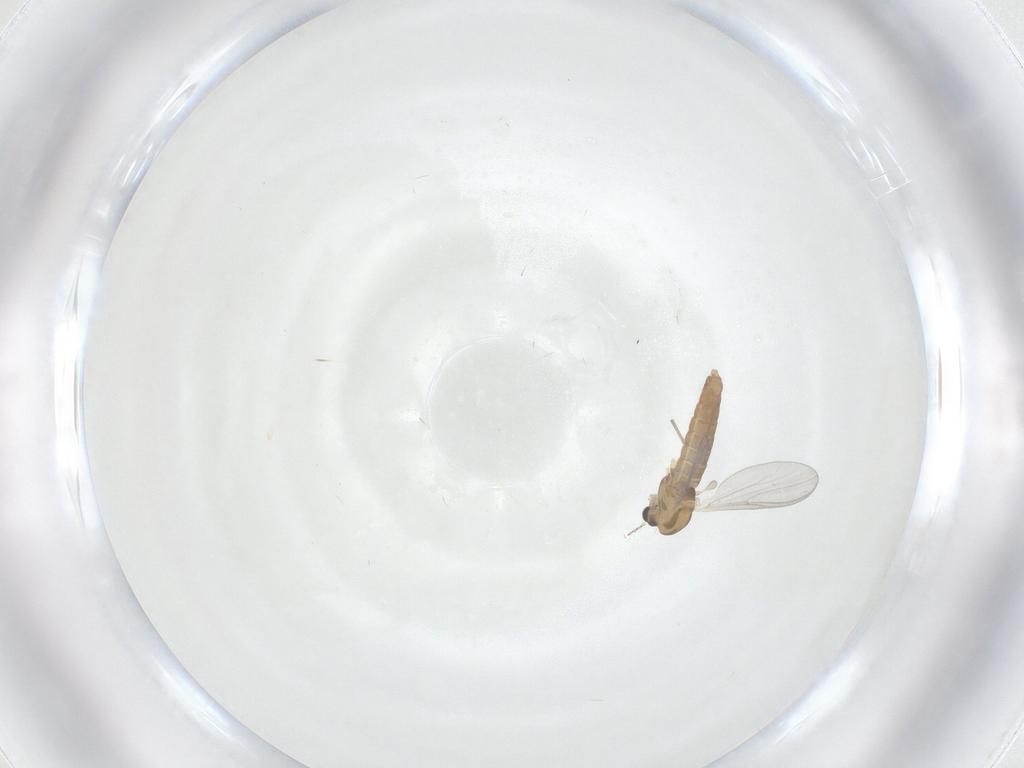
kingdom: Animalia
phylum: Arthropoda
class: Insecta
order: Diptera
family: Chironomidae
